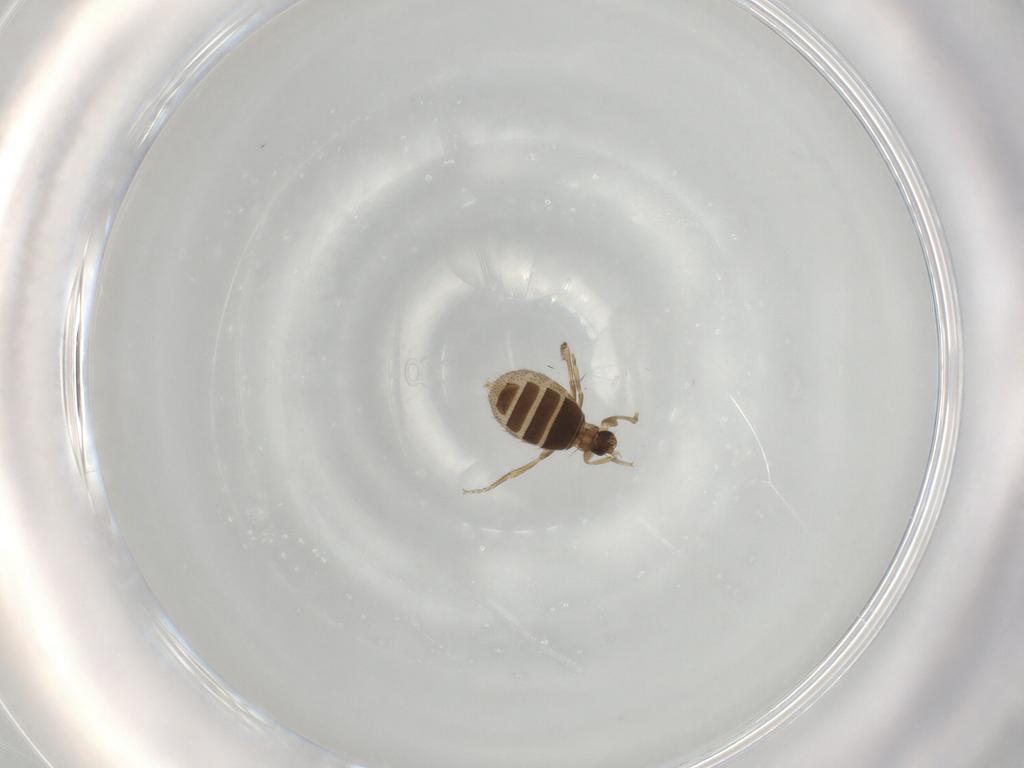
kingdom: Animalia
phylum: Arthropoda
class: Insecta
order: Diptera
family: Phoridae
